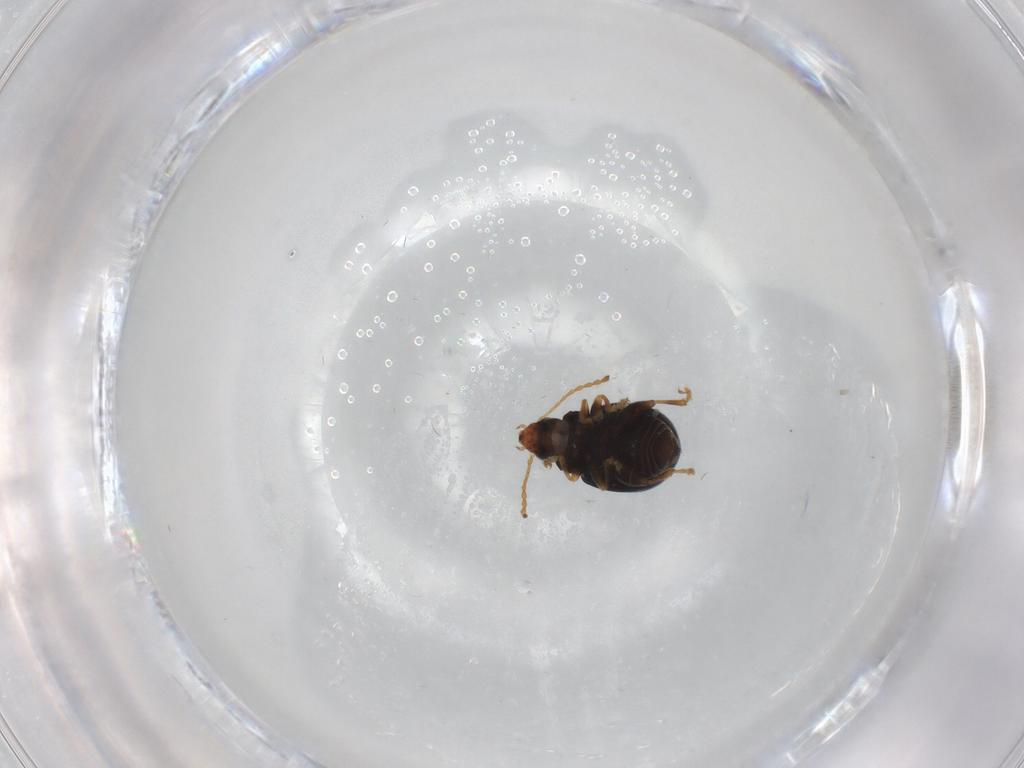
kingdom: Animalia
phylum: Arthropoda
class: Insecta
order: Coleoptera
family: Chrysomelidae
